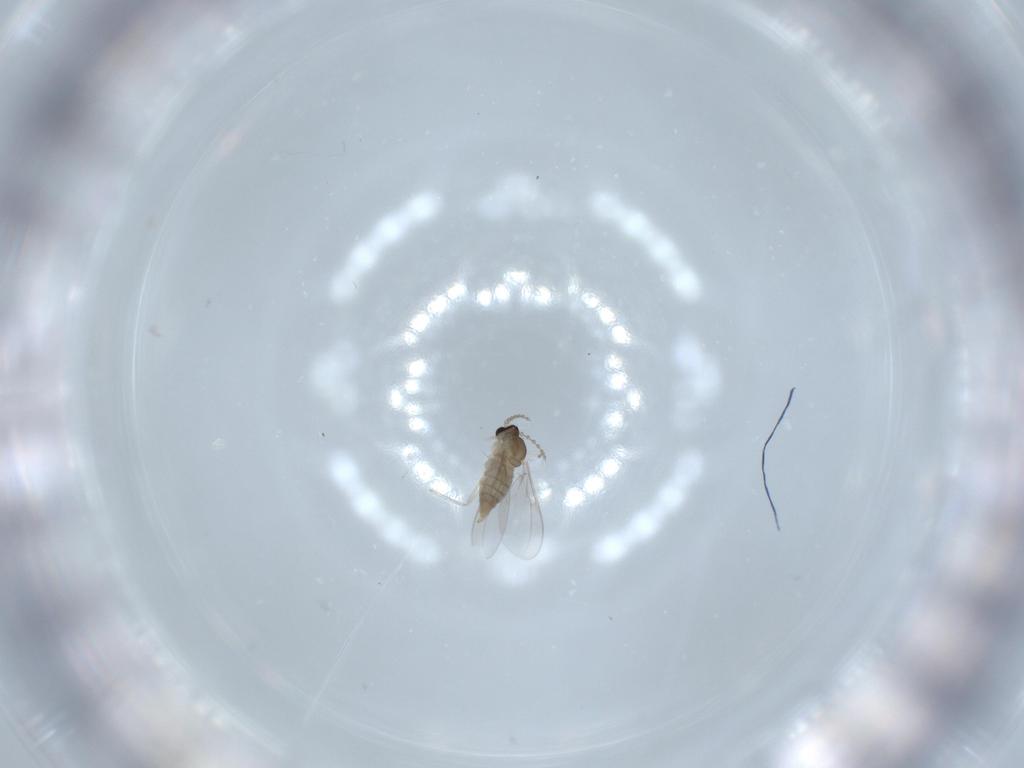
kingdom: Animalia
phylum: Arthropoda
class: Insecta
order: Diptera
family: Cecidomyiidae
